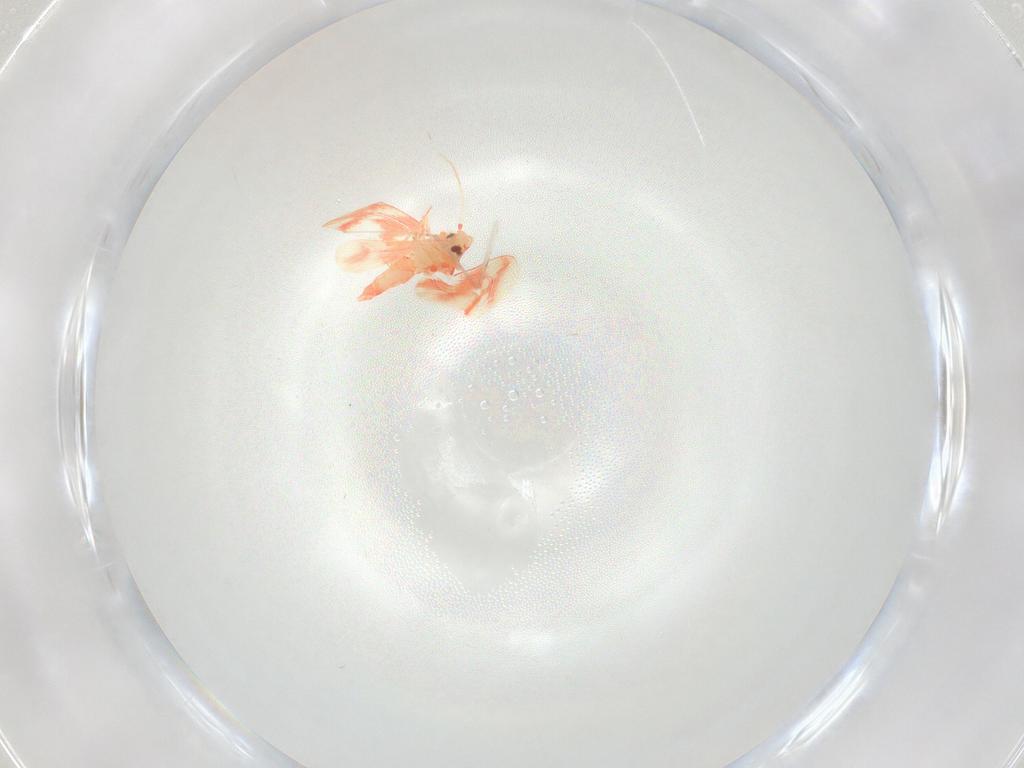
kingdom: Animalia
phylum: Arthropoda
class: Insecta
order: Hemiptera
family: Aleyrodidae
